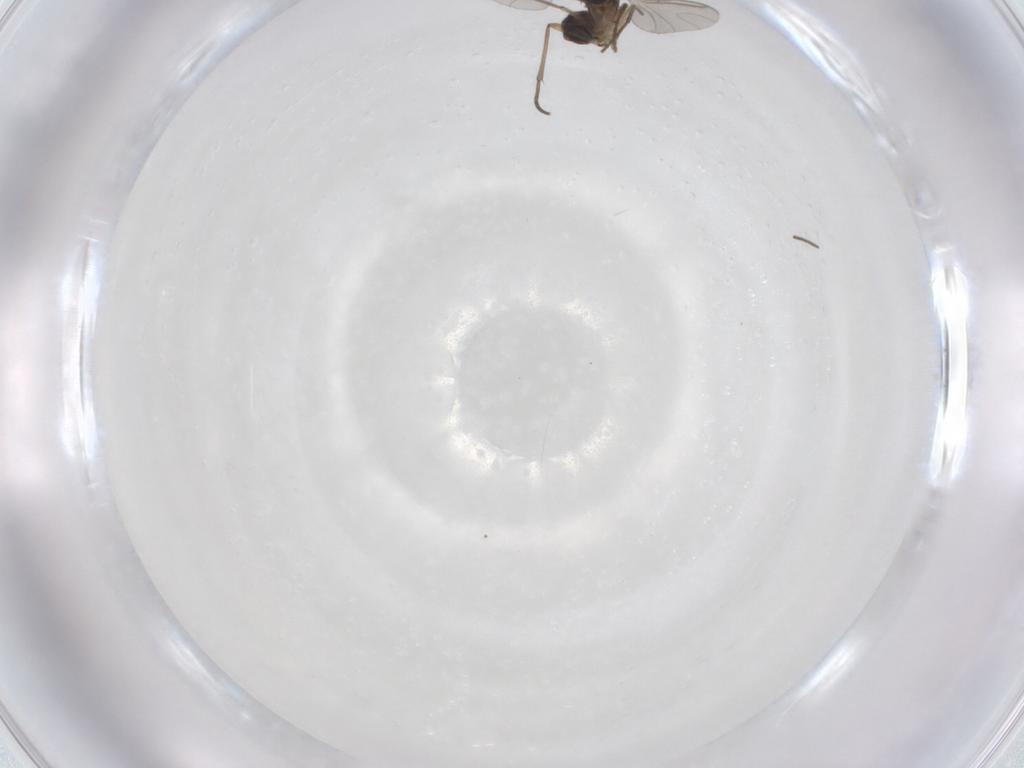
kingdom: Animalia
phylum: Arthropoda
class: Insecta
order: Diptera
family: Sciaridae
